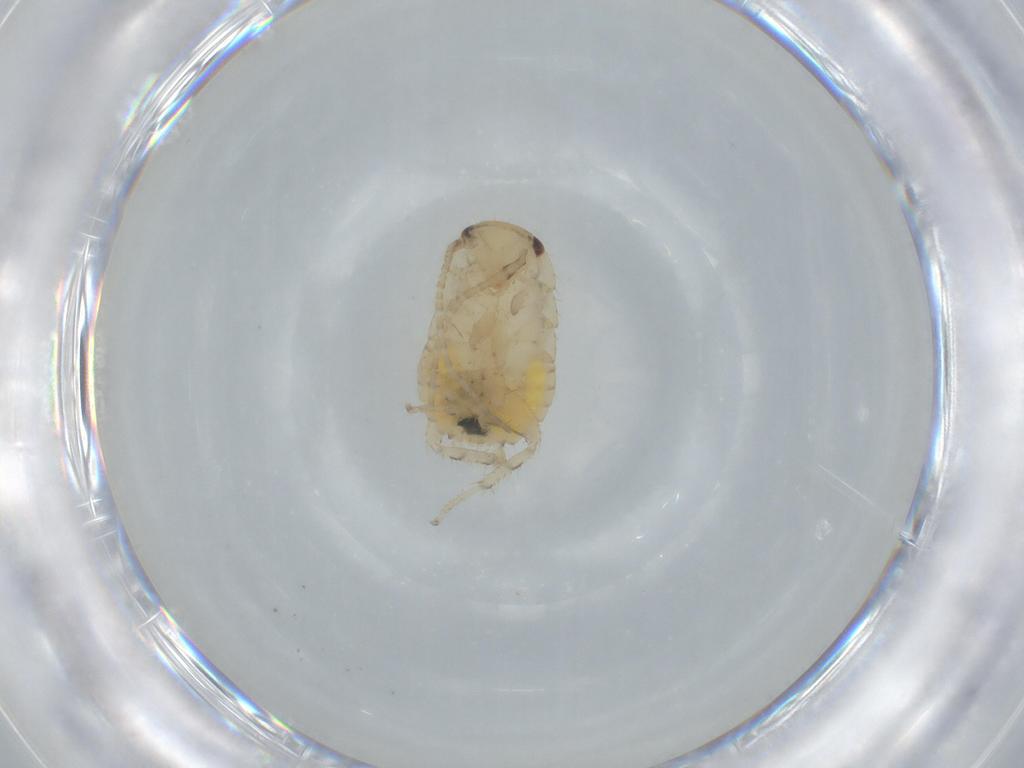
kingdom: Animalia
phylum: Arthropoda
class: Insecta
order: Blattodea
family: Ectobiidae
